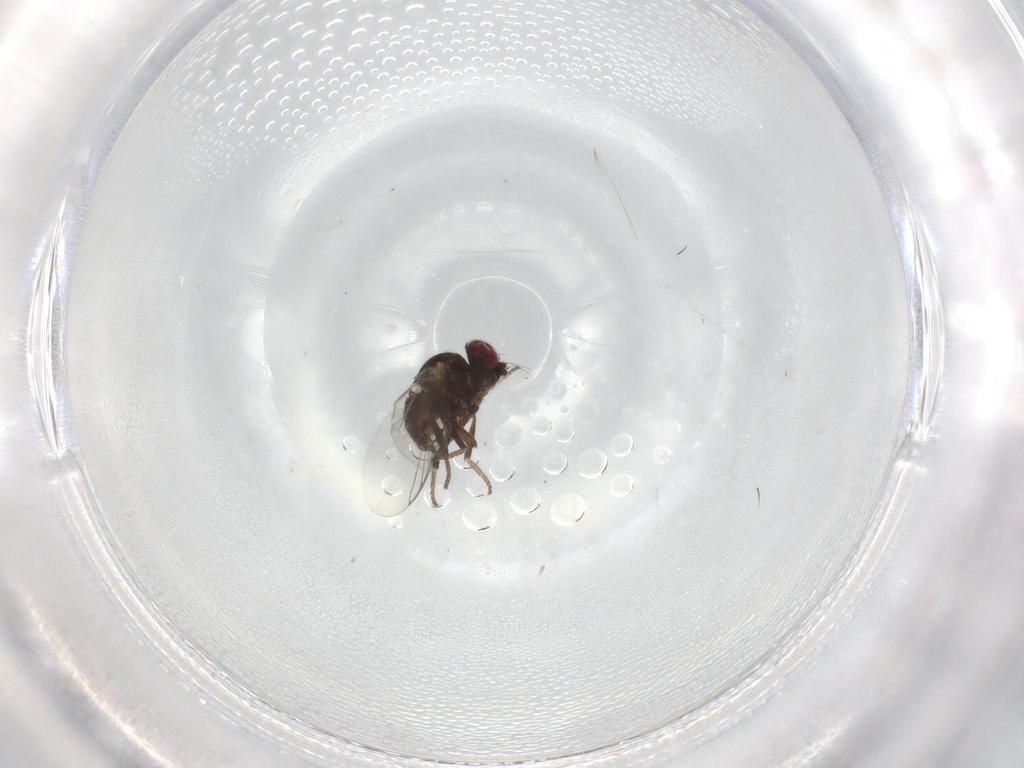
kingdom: Animalia
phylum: Arthropoda
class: Insecta
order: Diptera
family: Agromyzidae
